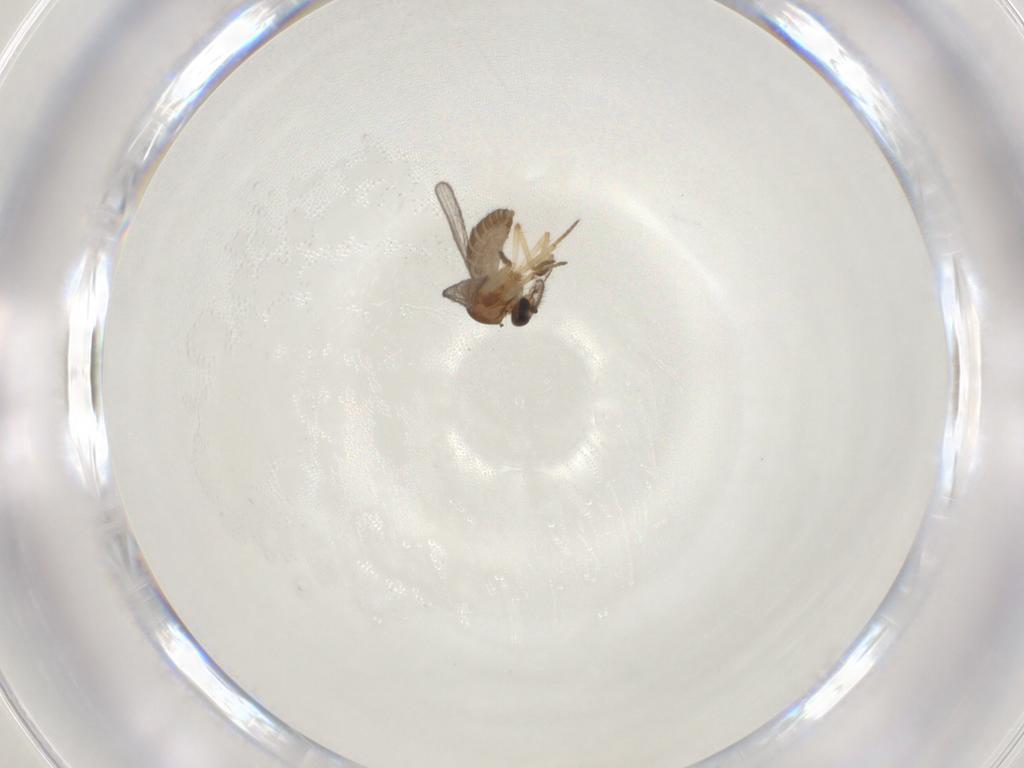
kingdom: Animalia
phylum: Arthropoda
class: Insecta
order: Diptera
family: Ceratopogonidae
